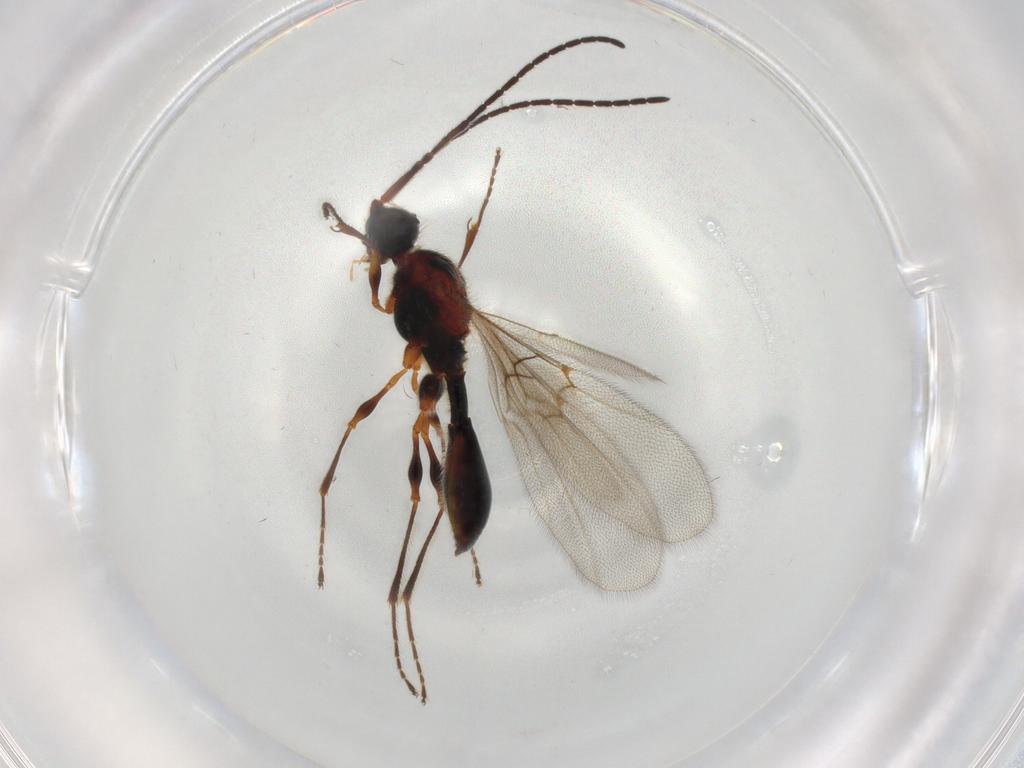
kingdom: Animalia
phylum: Arthropoda
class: Insecta
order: Hymenoptera
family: Diapriidae
